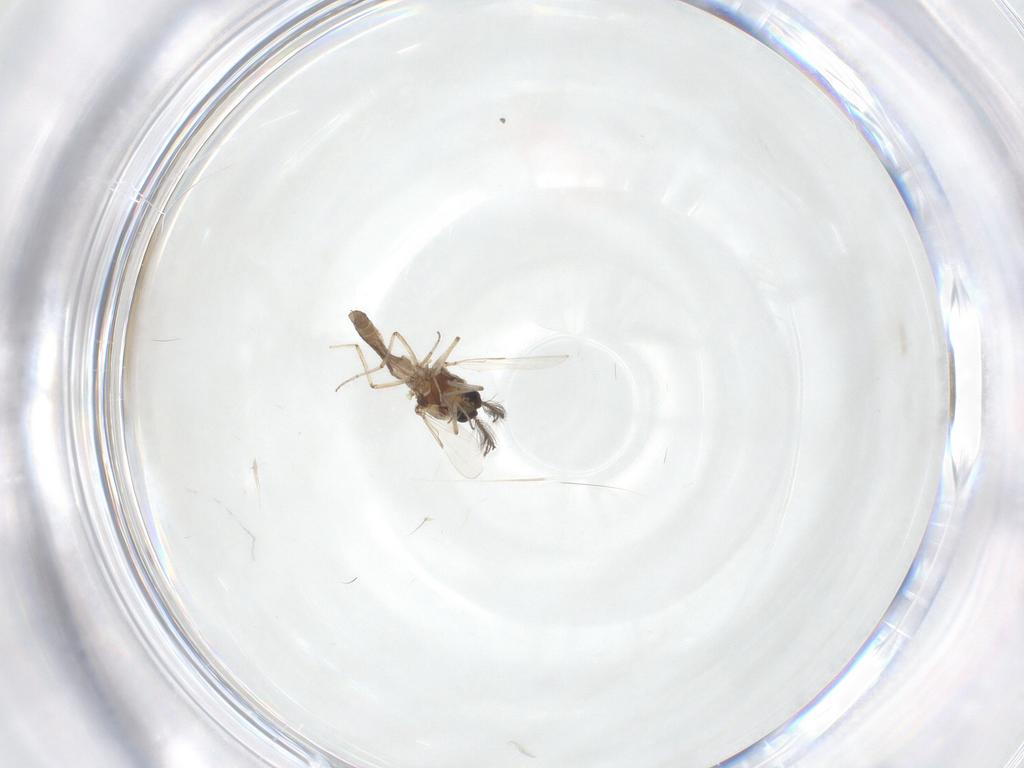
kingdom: Animalia
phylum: Arthropoda
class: Insecta
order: Diptera
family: Ceratopogonidae
